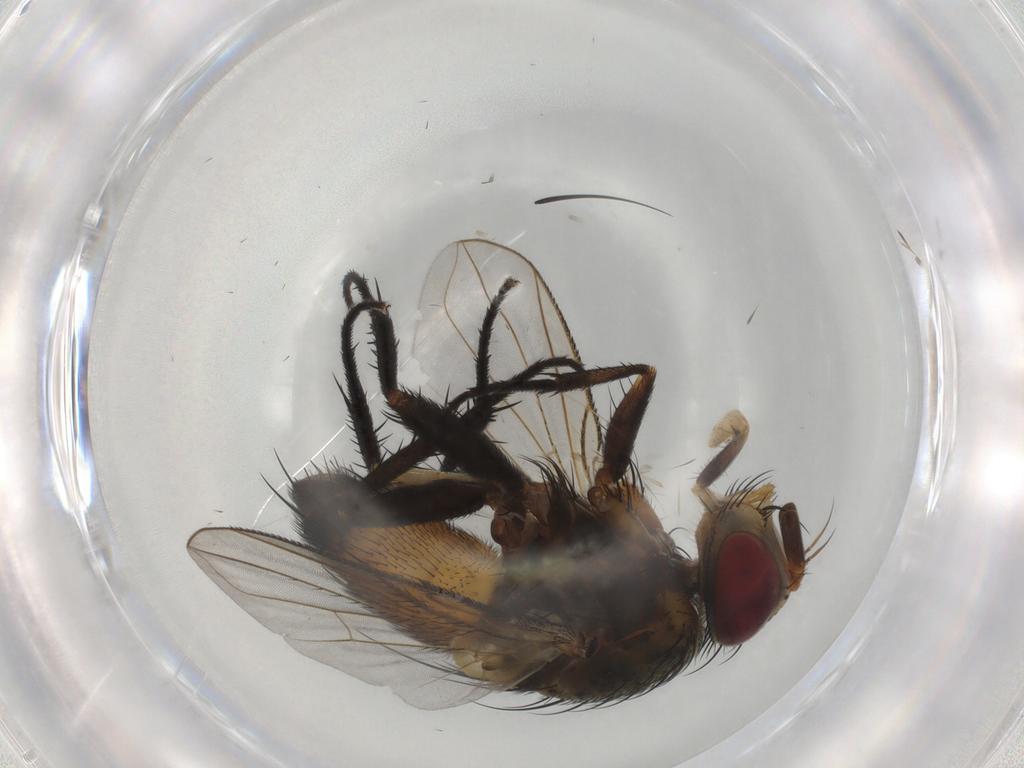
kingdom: Animalia
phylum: Arthropoda
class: Insecta
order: Diptera
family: Tachinidae
